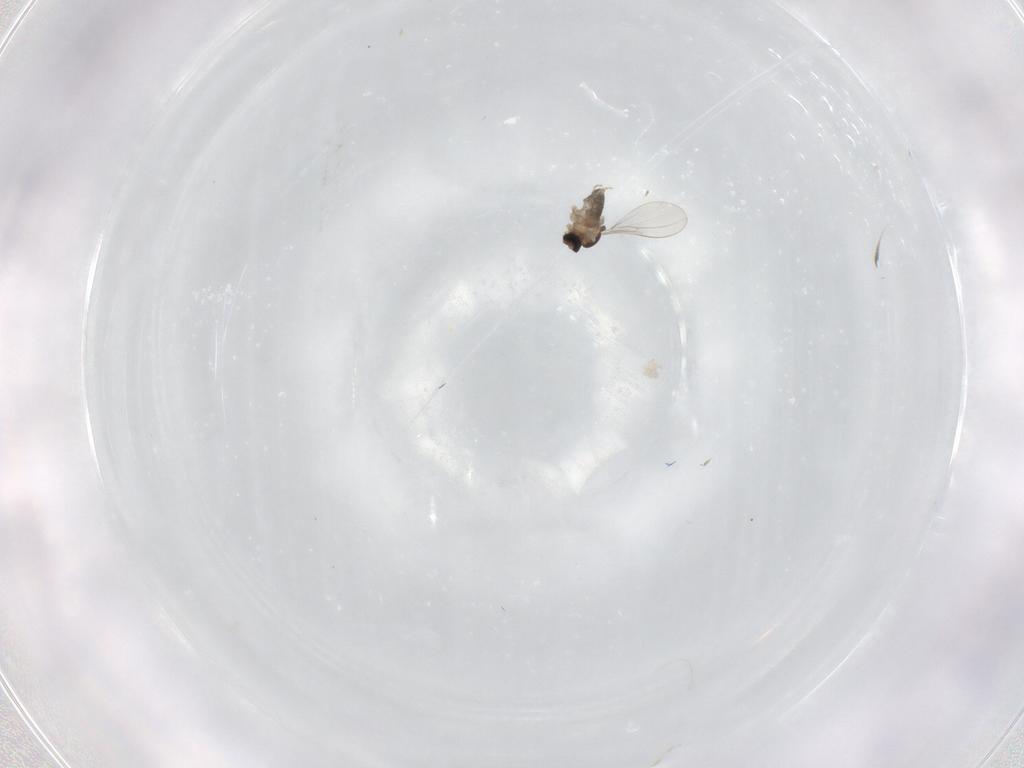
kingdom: Animalia
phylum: Arthropoda
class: Insecta
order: Diptera
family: Cecidomyiidae
